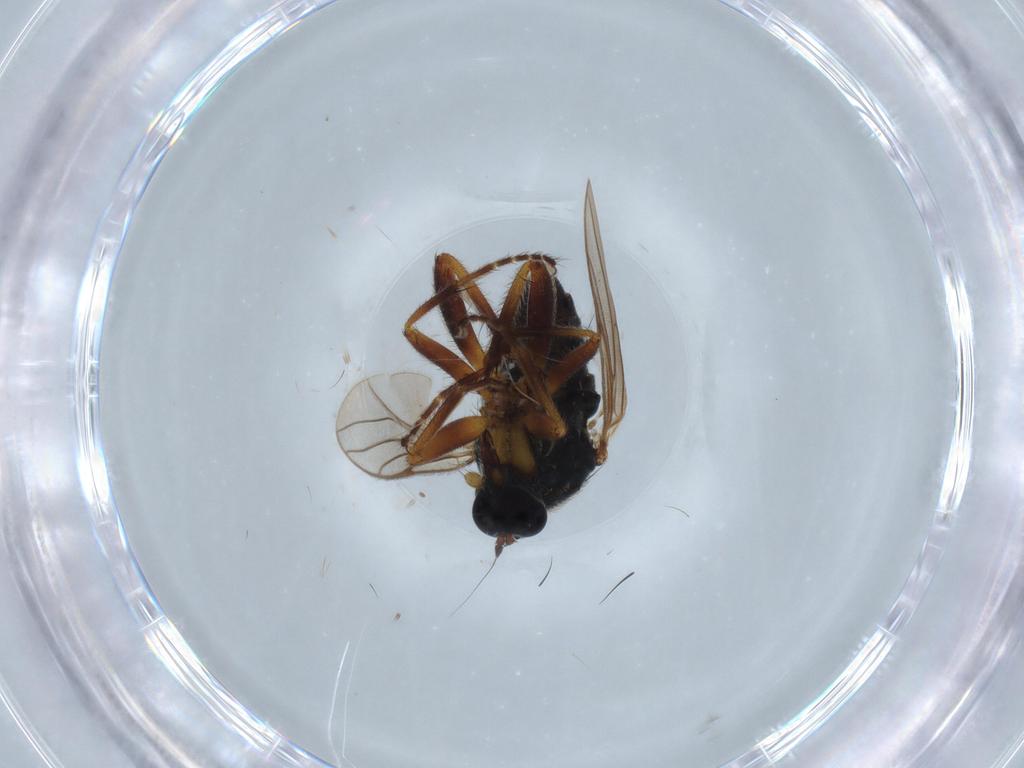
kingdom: Animalia
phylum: Arthropoda
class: Insecta
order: Diptera
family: Hybotidae
